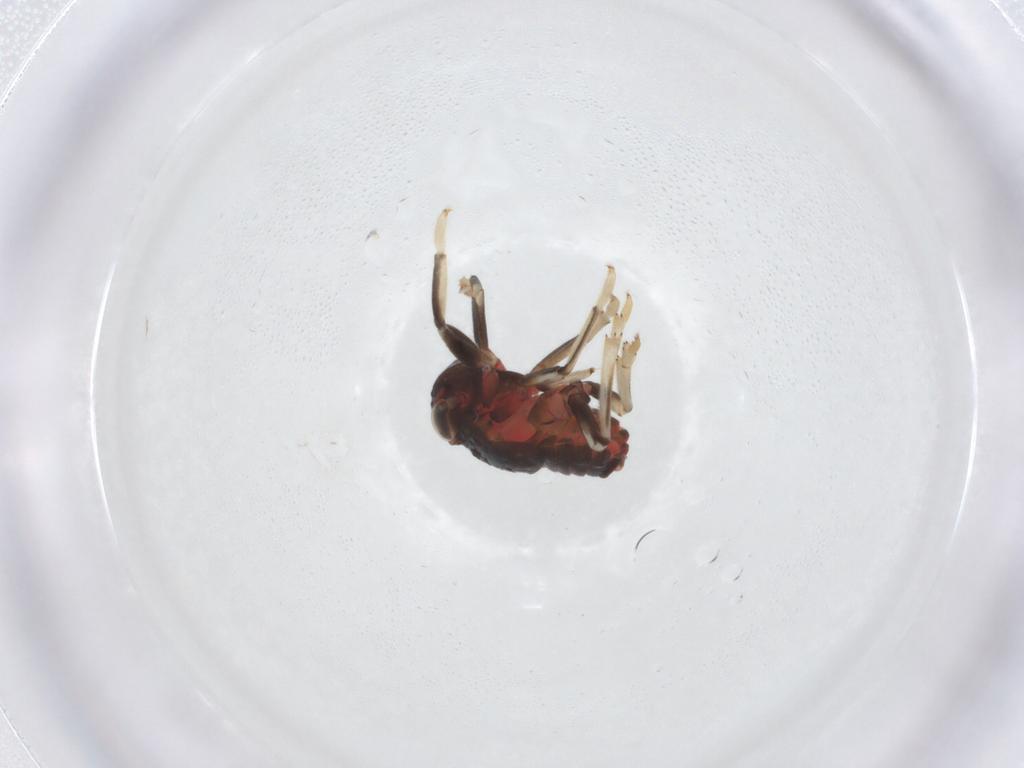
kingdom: Animalia
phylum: Arthropoda
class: Insecta
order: Hemiptera
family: Issidae
